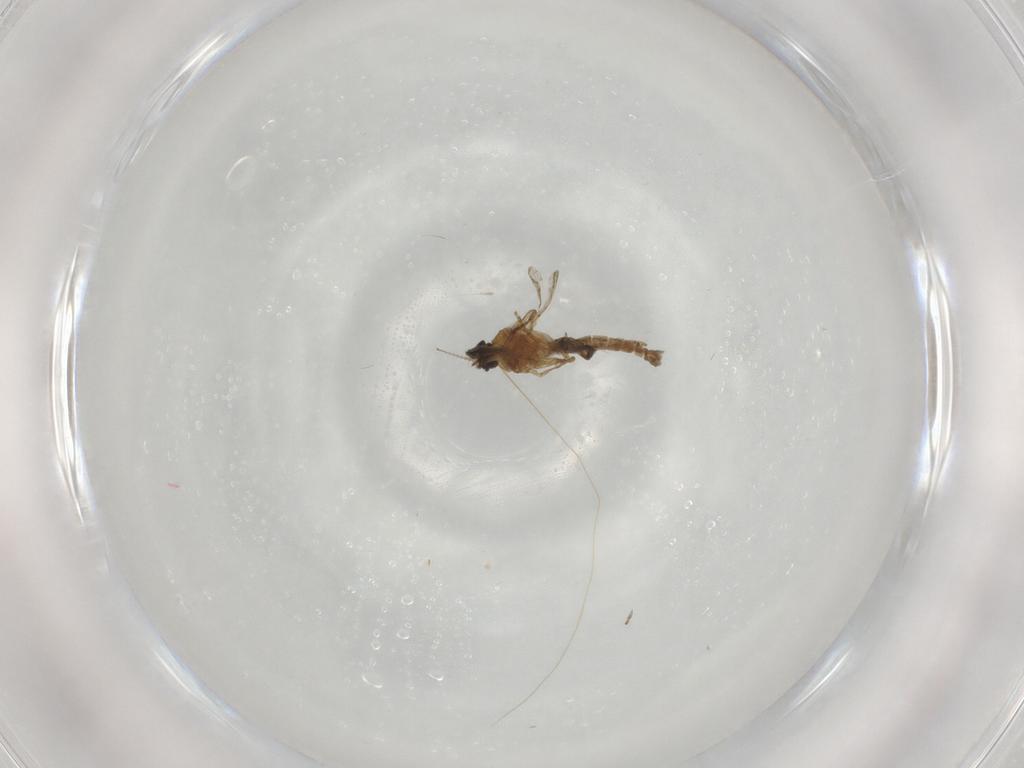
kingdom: Animalia
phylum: Arthropoda
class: Insecta
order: Diptera
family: Ceratopogonidae
